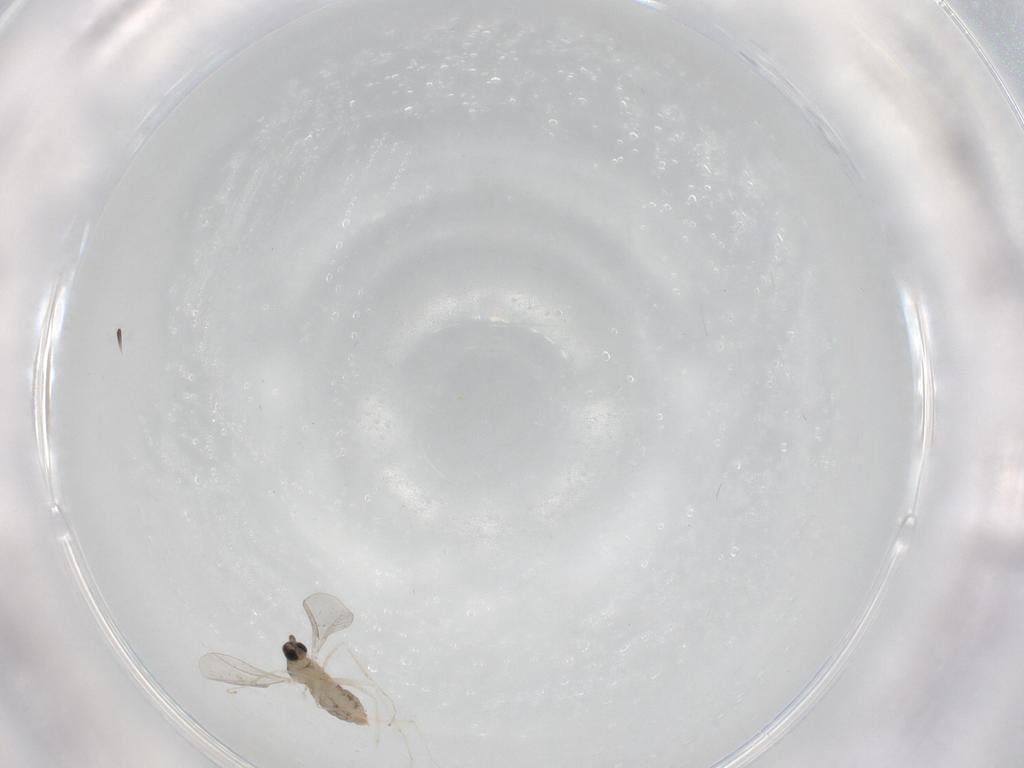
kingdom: Animalia
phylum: Arthropoda
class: Insecta
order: Diptera
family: Cecidomyiidae
